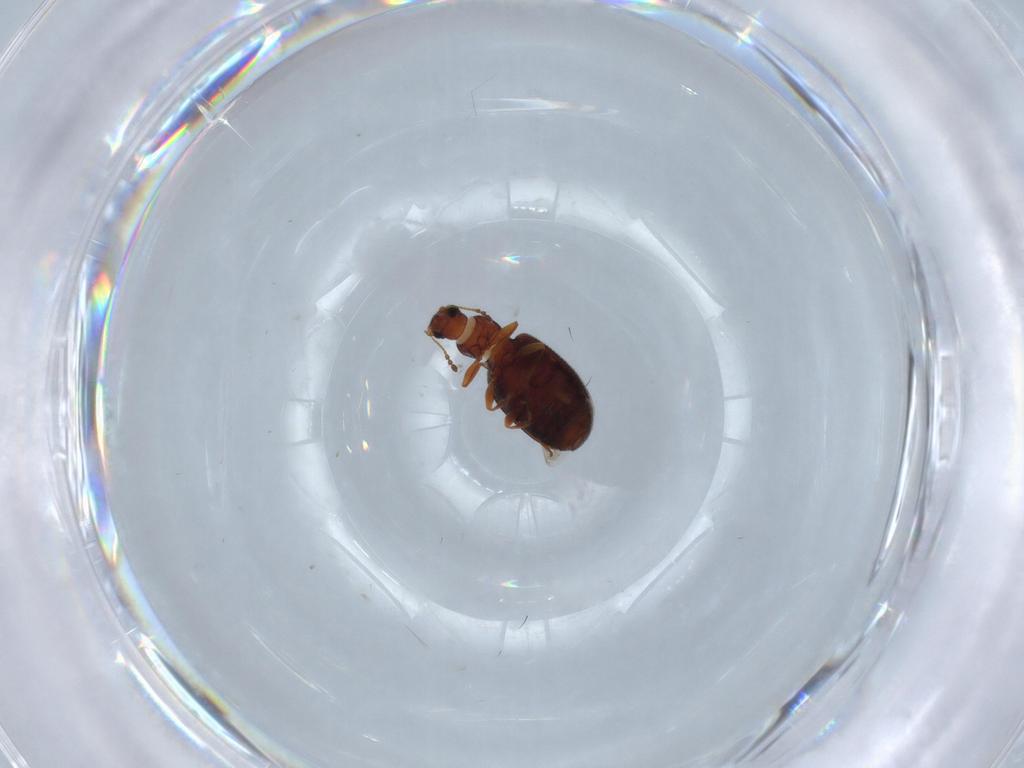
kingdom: Animalia
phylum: Arthropoda
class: Insecta
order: Coleoptera
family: Latridiidae
